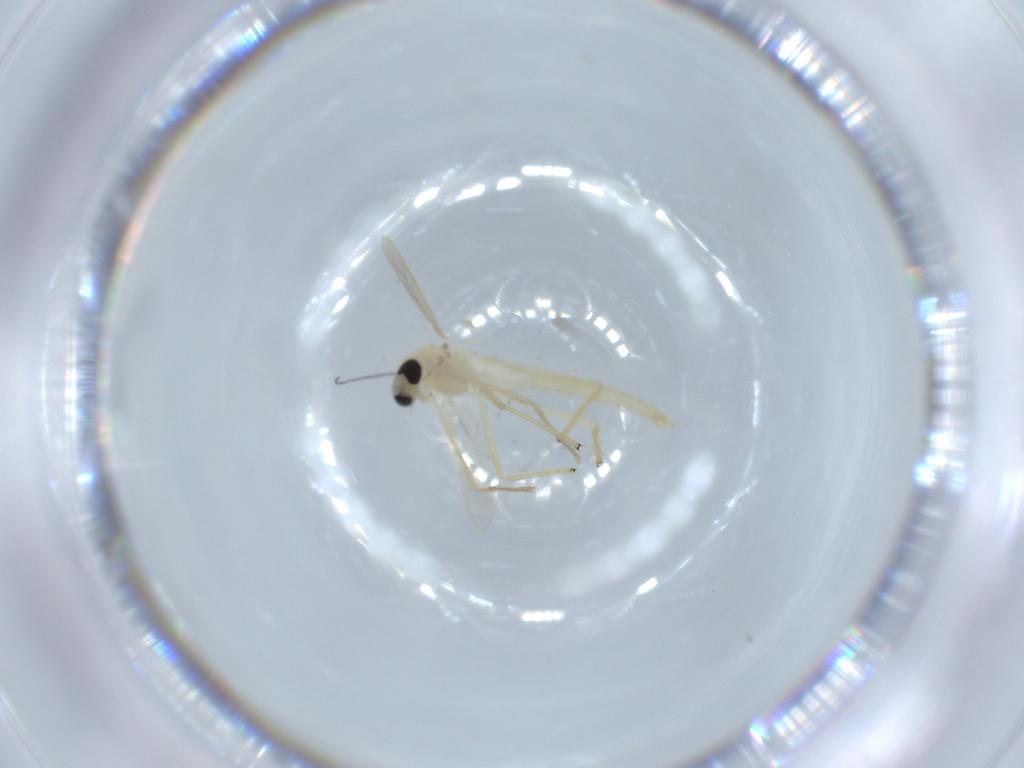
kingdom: Animalia
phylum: Arthropoda
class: Insecta
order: Diptera
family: Chironomidae
